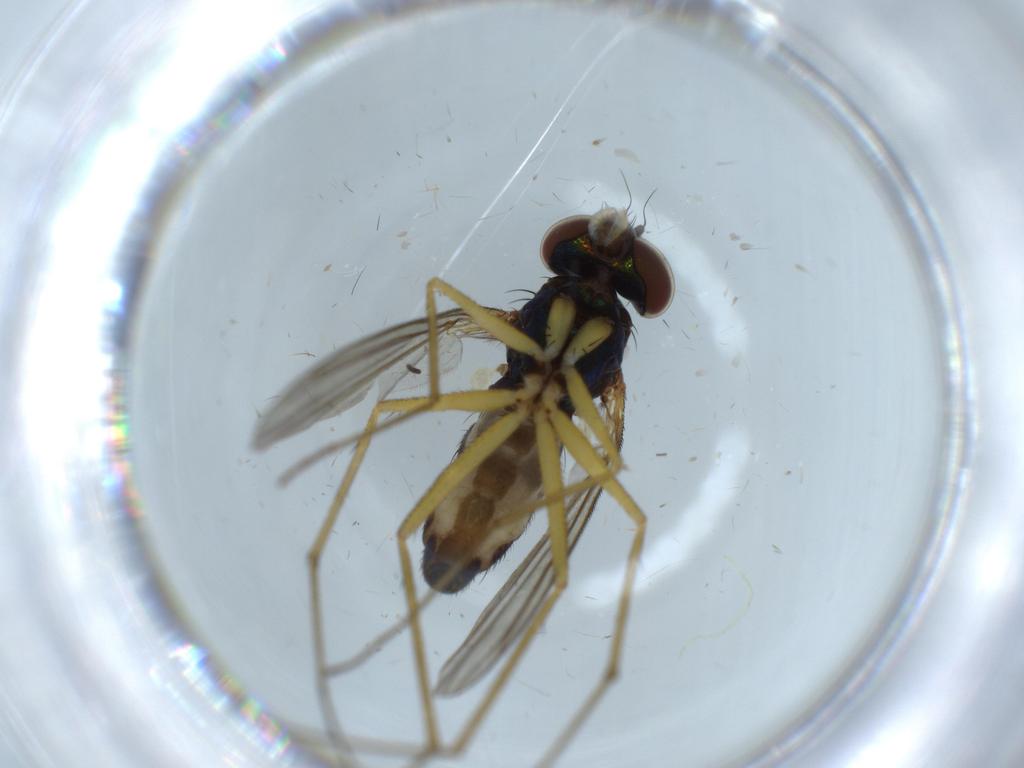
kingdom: Animalia
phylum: Arthropoda
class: Insecta
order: Diptera
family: Dolichopodidae
